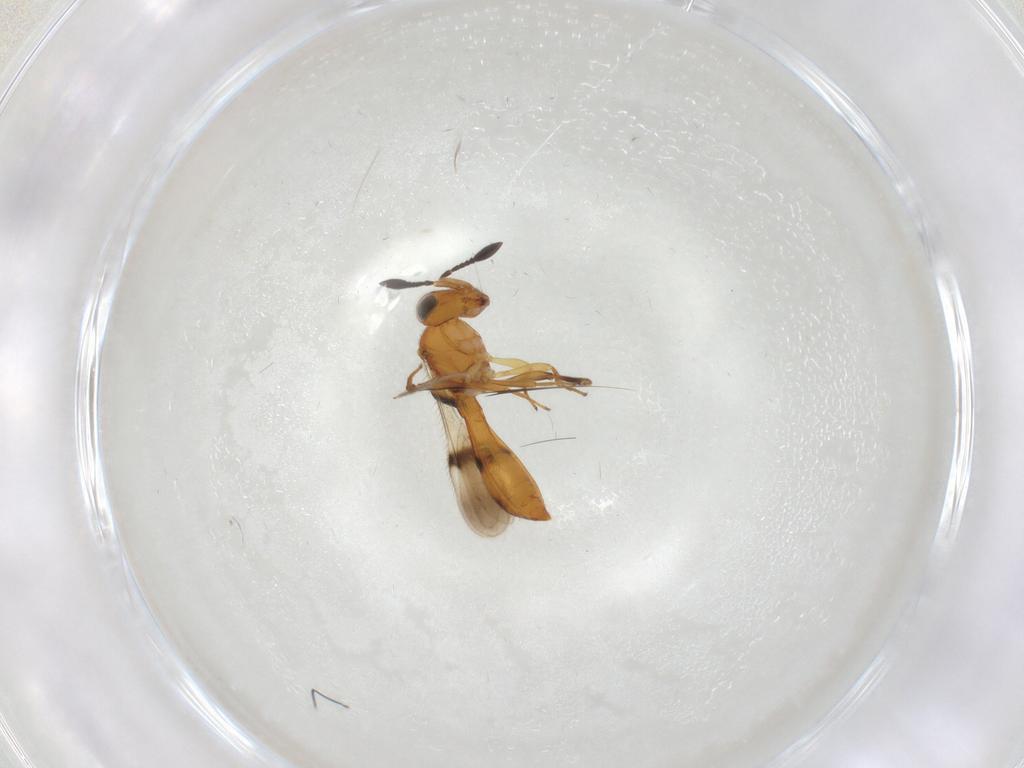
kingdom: Animalia
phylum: Arthropoda
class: Insecta
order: Hymenoptera
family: Scelionidae
